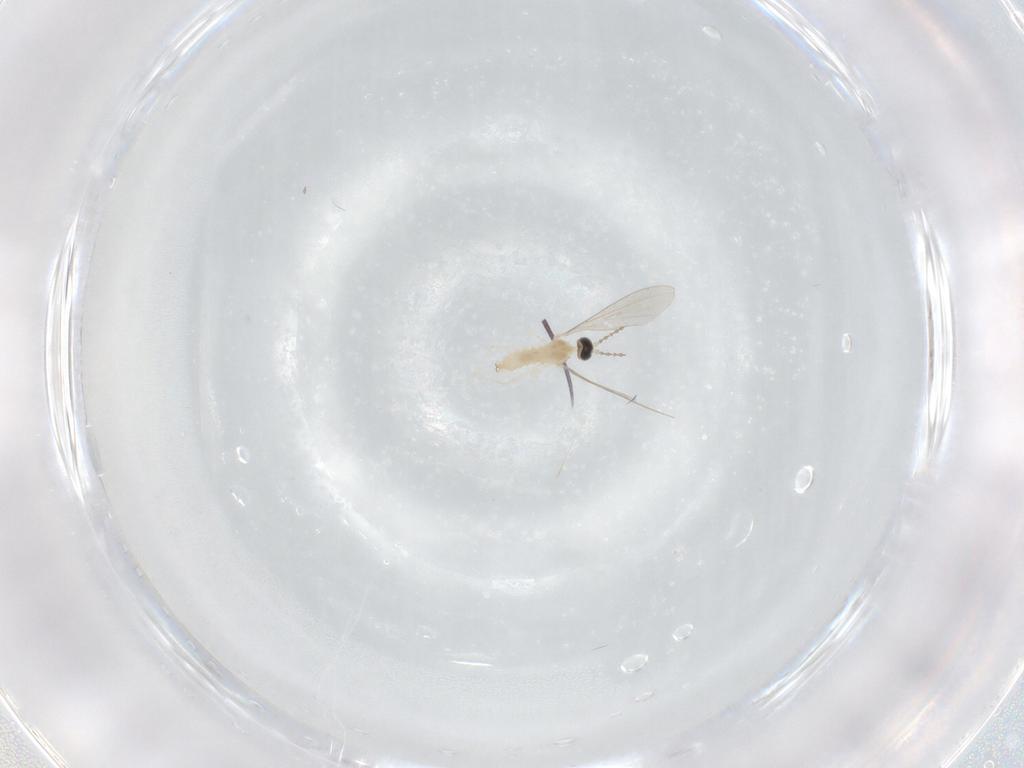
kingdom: Animalia
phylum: Arthropoda
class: Insecta
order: Diptera
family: Cecidomyiidae
